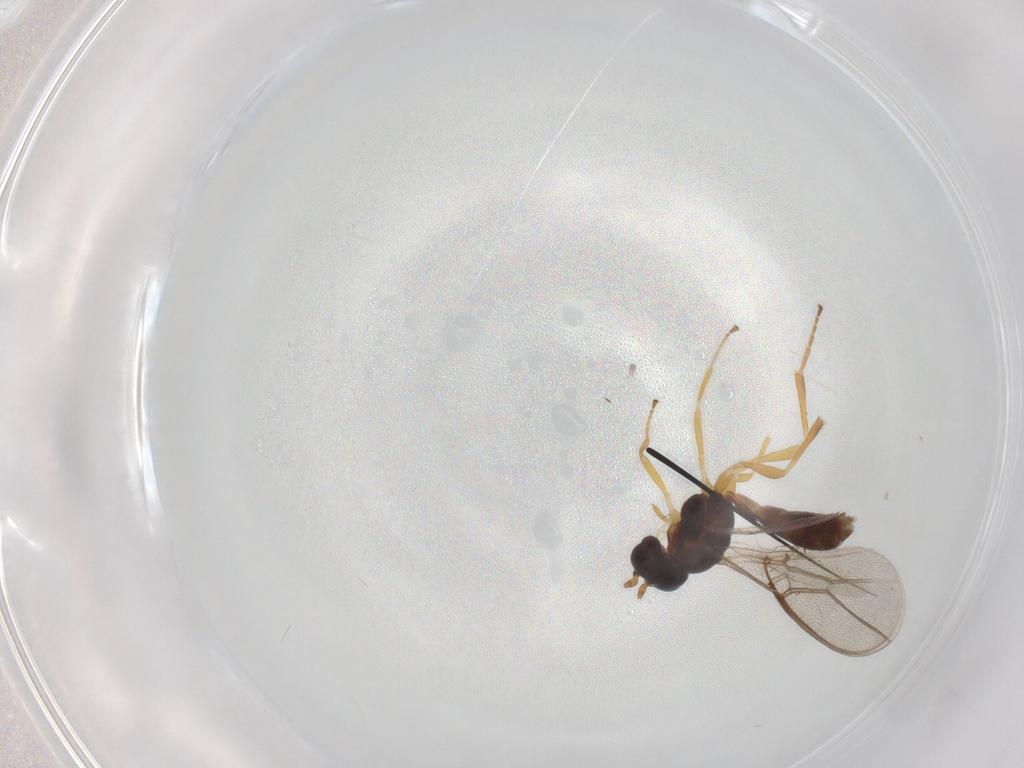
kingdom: Animalia
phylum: Arthropoda
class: Insecta
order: Hymenoptera
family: Braconidae
